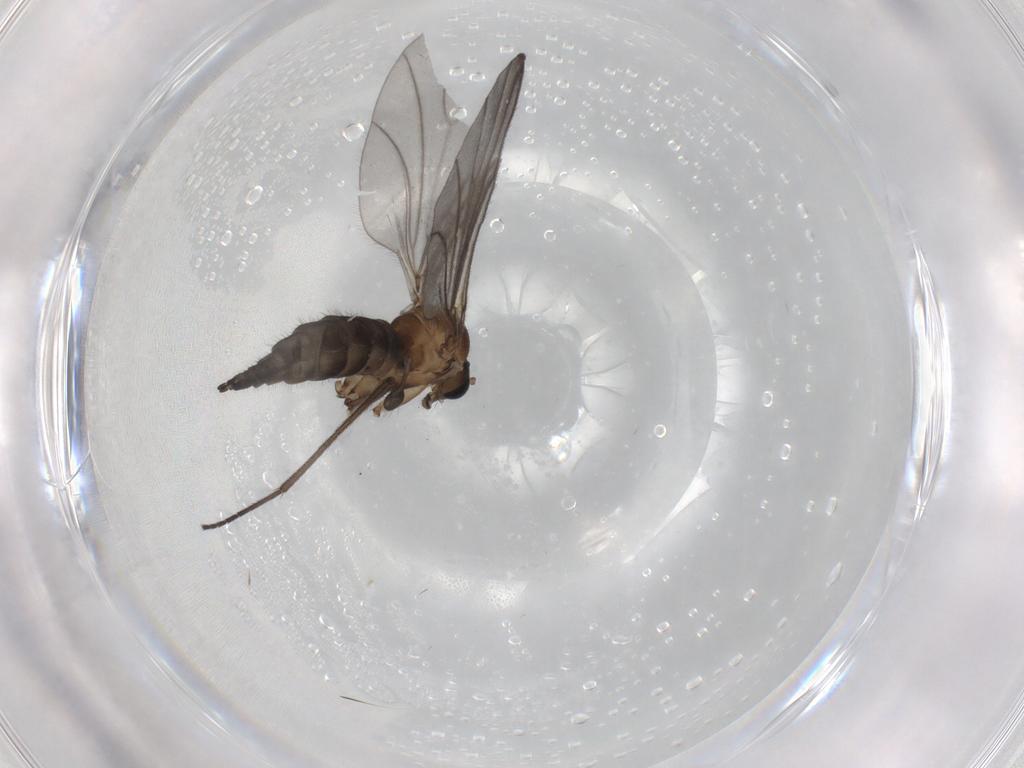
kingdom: Animalia
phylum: Arthropoda
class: Insecta
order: Diptera
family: Sciaridae
